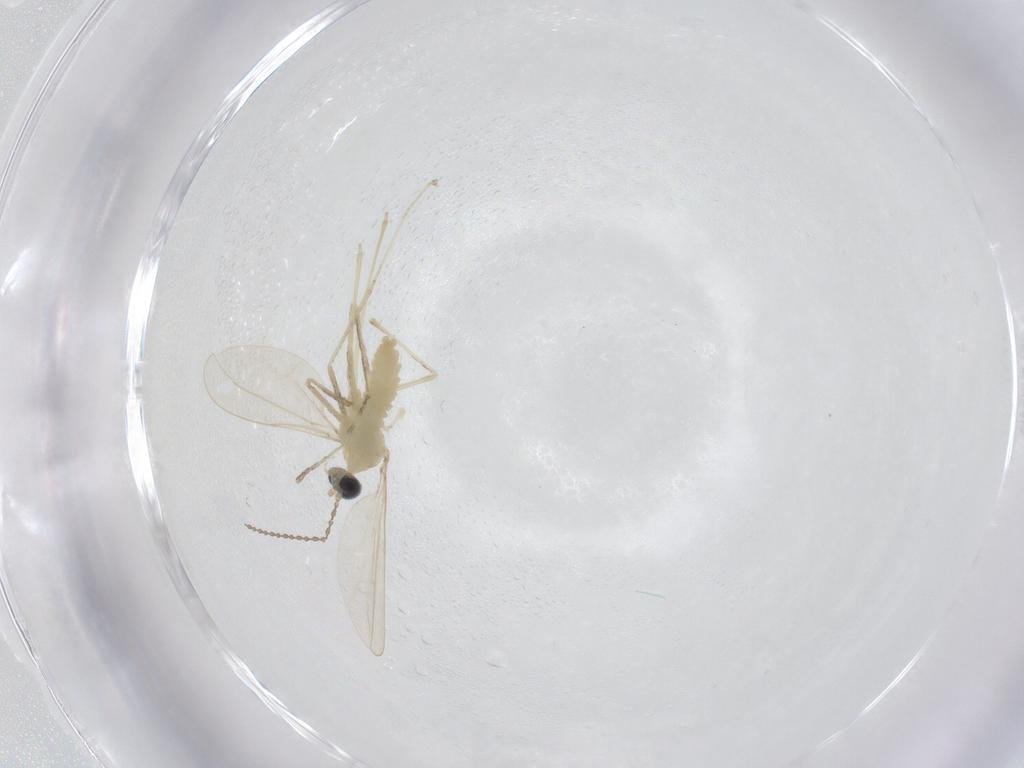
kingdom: Animalia
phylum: Arthropoda
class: Insecta
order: Diptera
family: Cecidomyiidae
